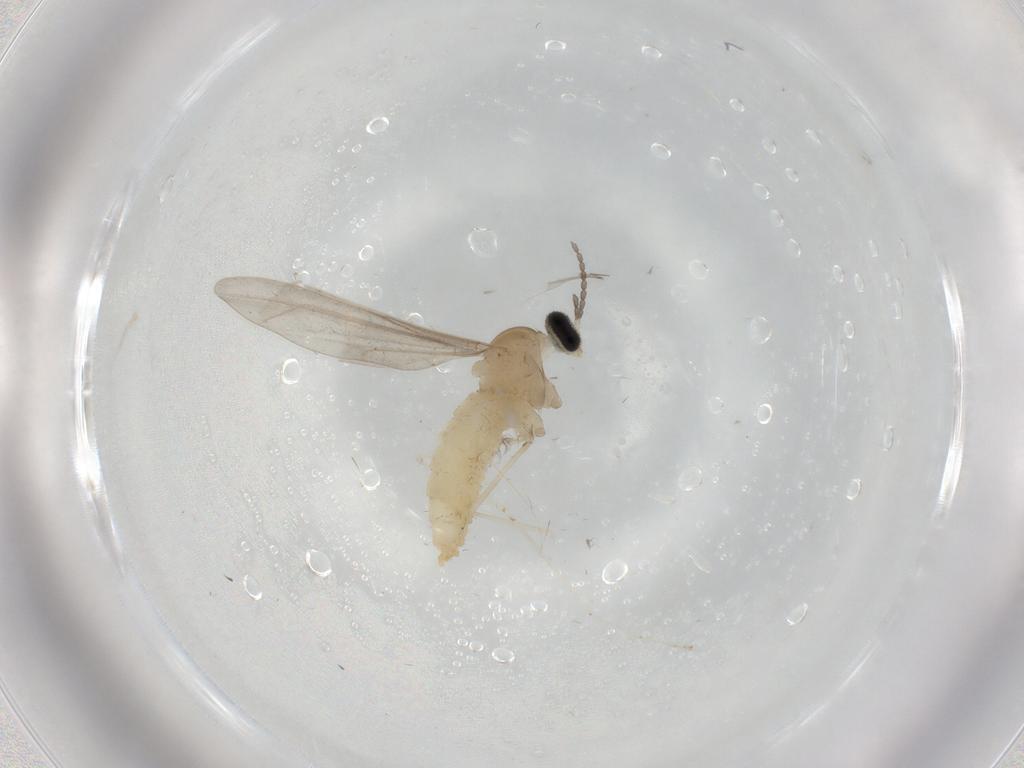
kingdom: Animalia
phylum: Arthropoda
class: Insecta
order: Diptera
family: Cecidomyiidae
